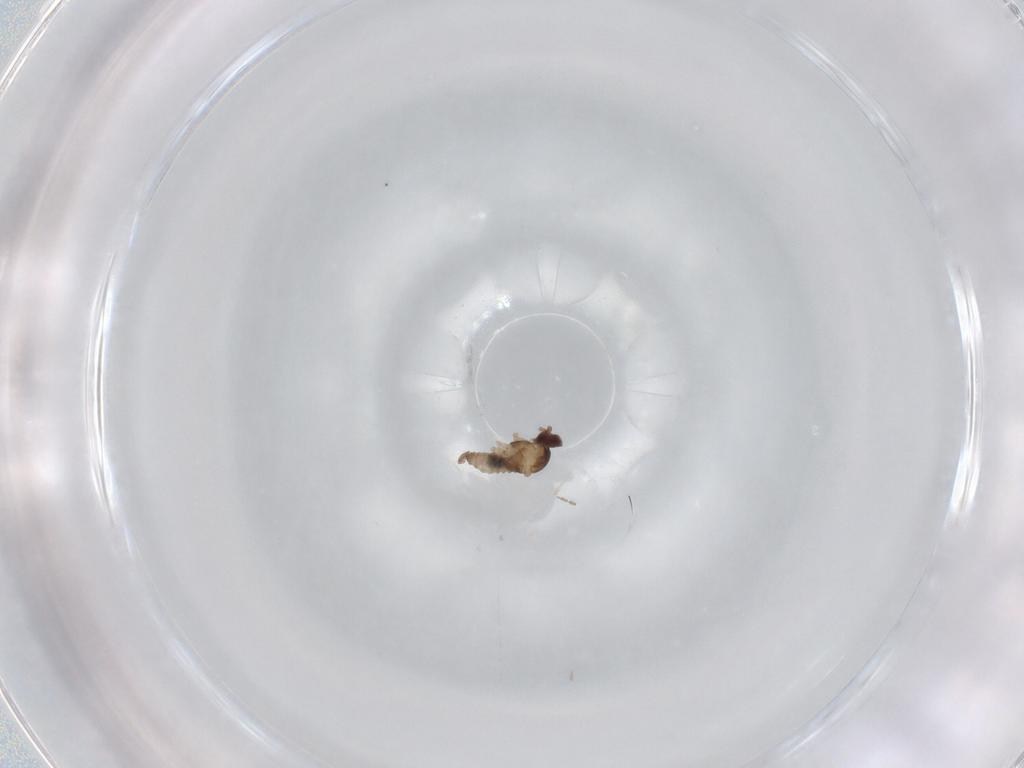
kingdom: Animalia
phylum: Arthropoda
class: Insecta
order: Diptera
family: Cecidomyiidae
